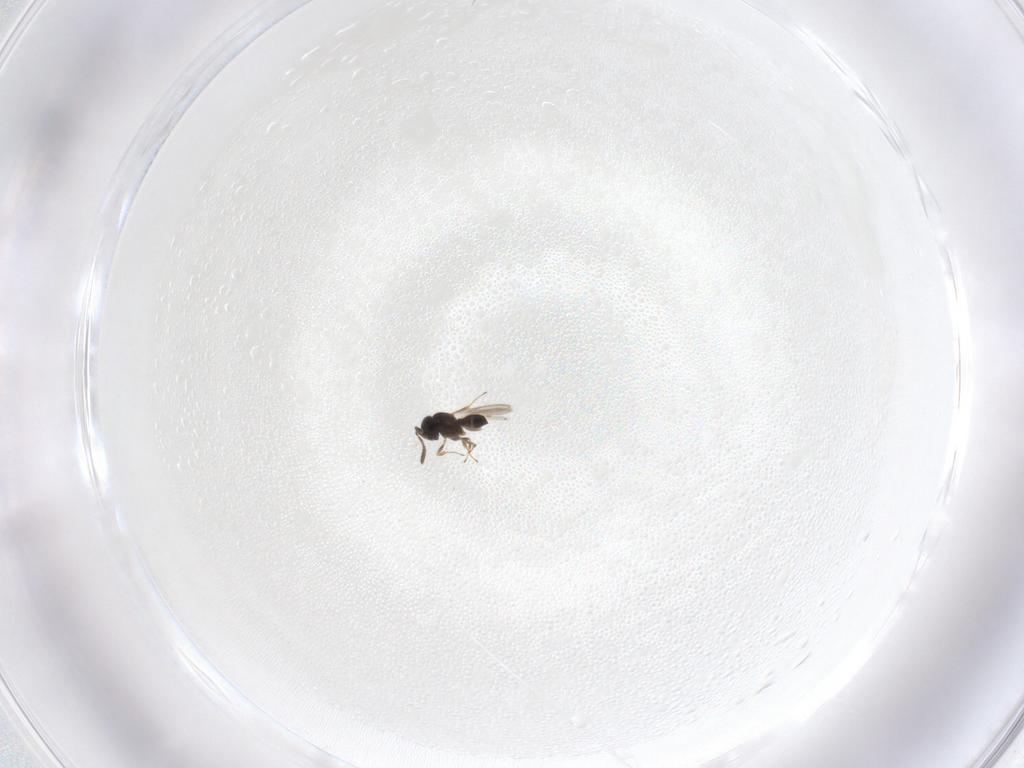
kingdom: Animalia
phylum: Arthropoda
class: Insecta
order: Hymenoptera
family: Scelionidae
